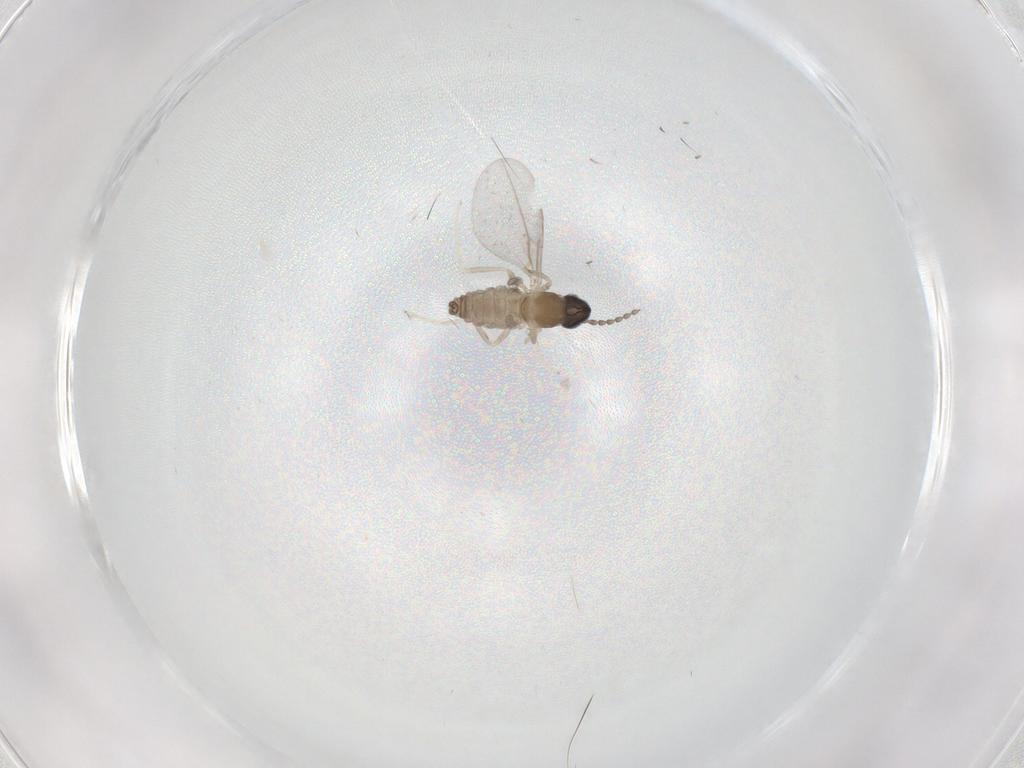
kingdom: Animalia
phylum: Arthropoda
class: Insecta
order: Diptera
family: Cecidomyiidae
